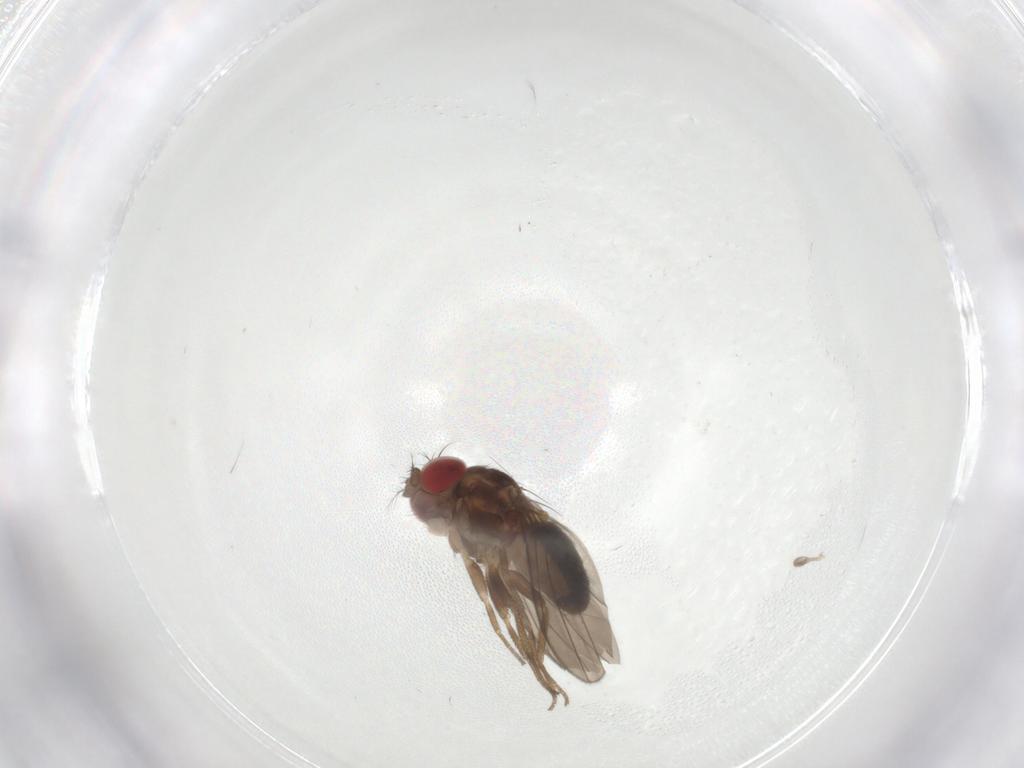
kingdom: Animalia
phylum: Arthropoda
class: Insecta
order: Diptera
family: Drosophilidae
